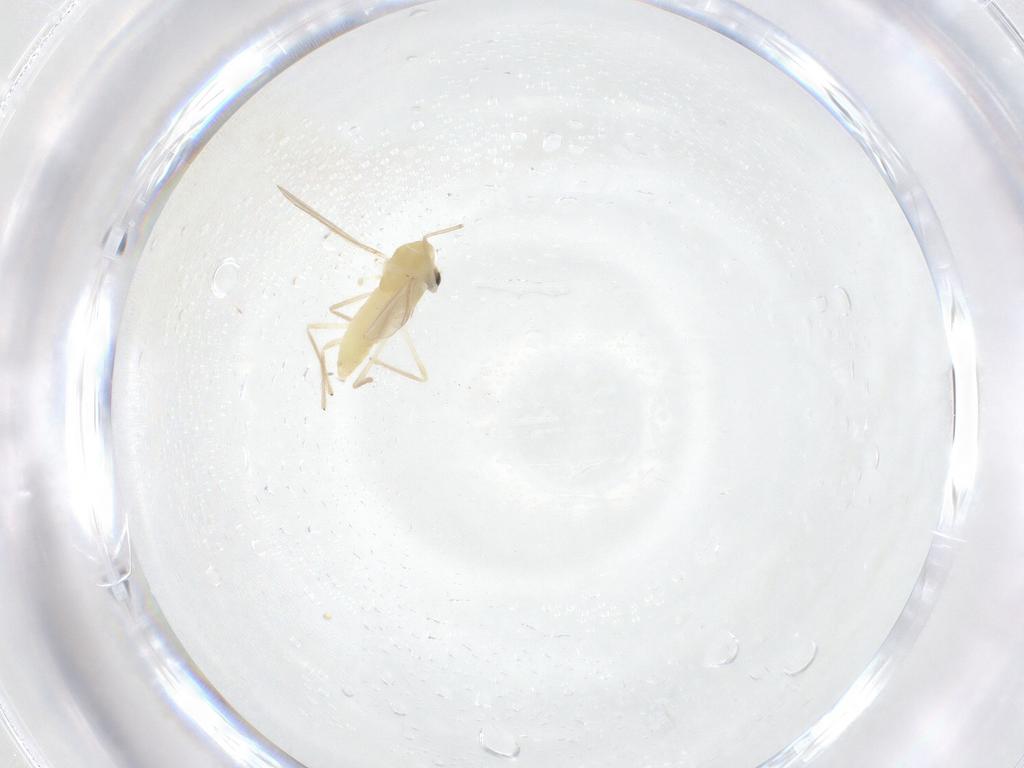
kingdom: Animalia
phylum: Arthropoda
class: Insecta
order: Diptera
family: Chironomidae
